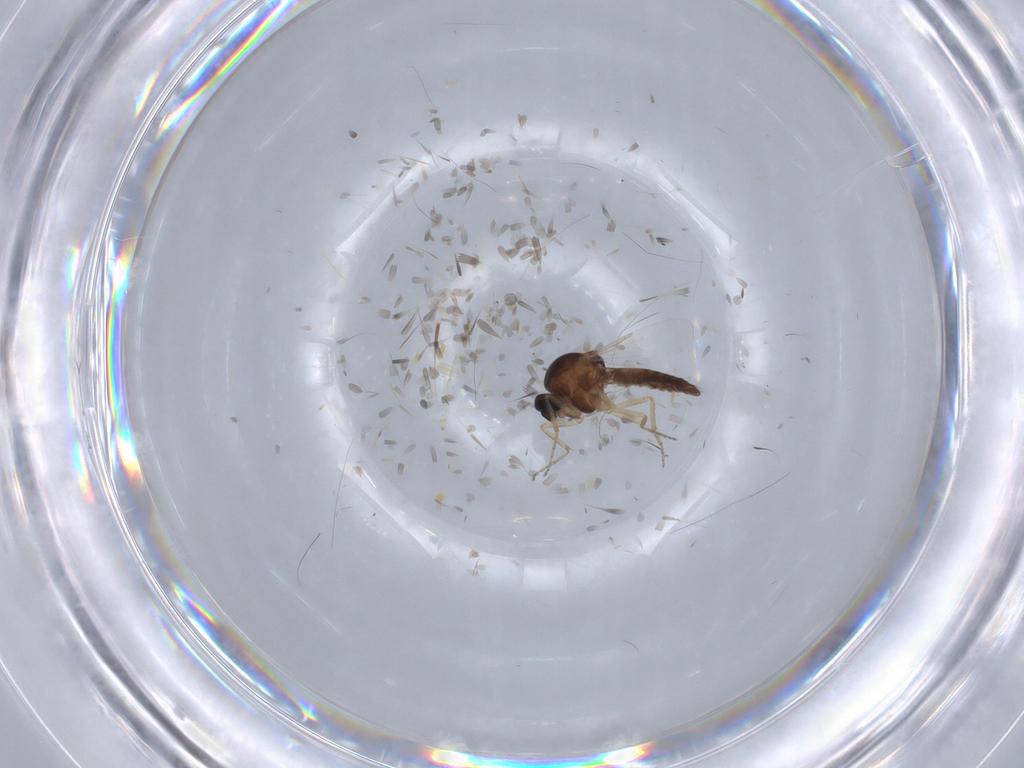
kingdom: Animalia
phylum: Arthropoda
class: Insecta
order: Diptera
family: Ceratopogonidae
